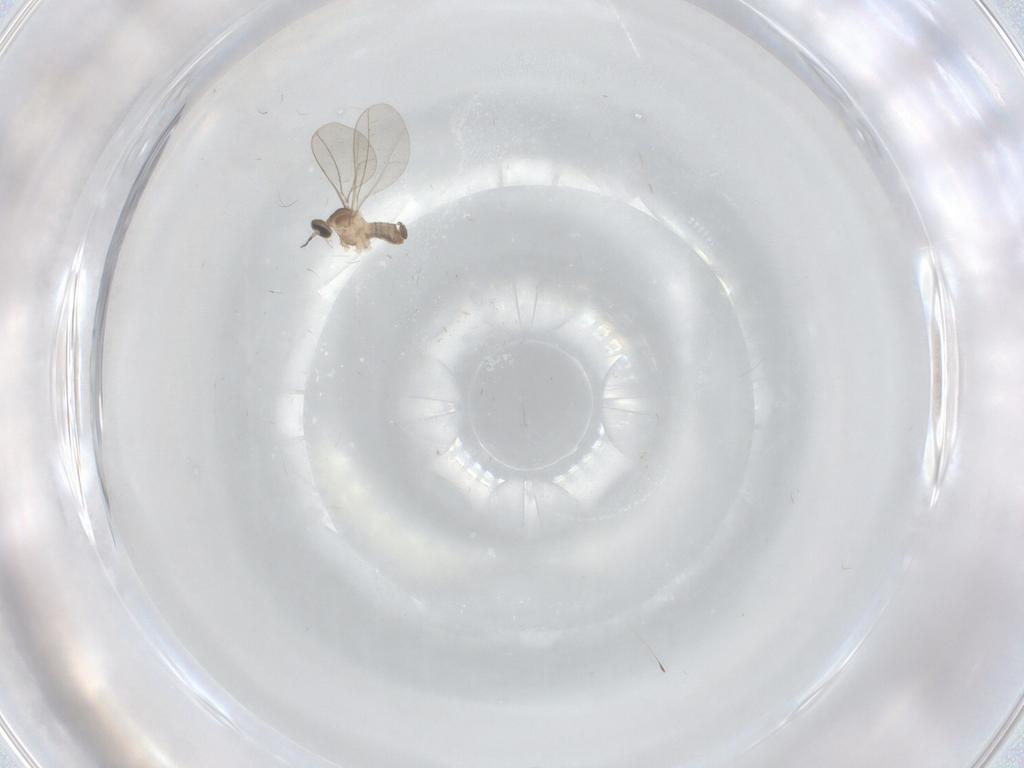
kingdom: Animalia
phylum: Arthropoda
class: Insecta
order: Diptera
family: Cecidomyiidae
